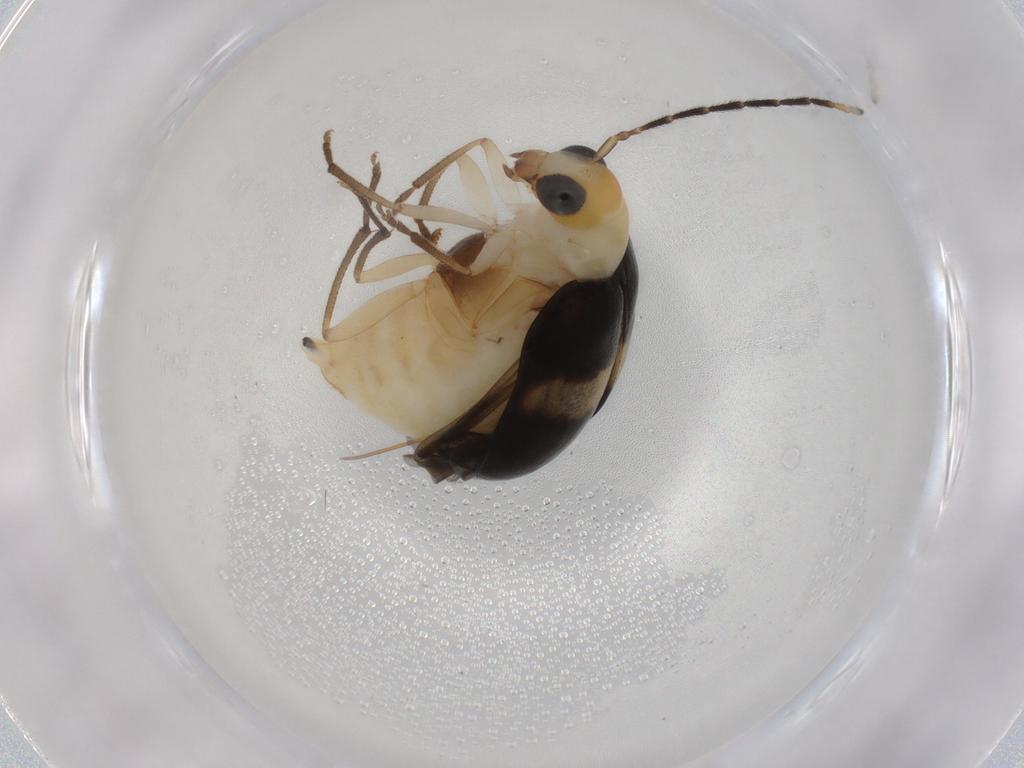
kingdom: Animalia
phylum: Arthropoda
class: Insecta
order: Coleoptera
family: Chrysomelidae
